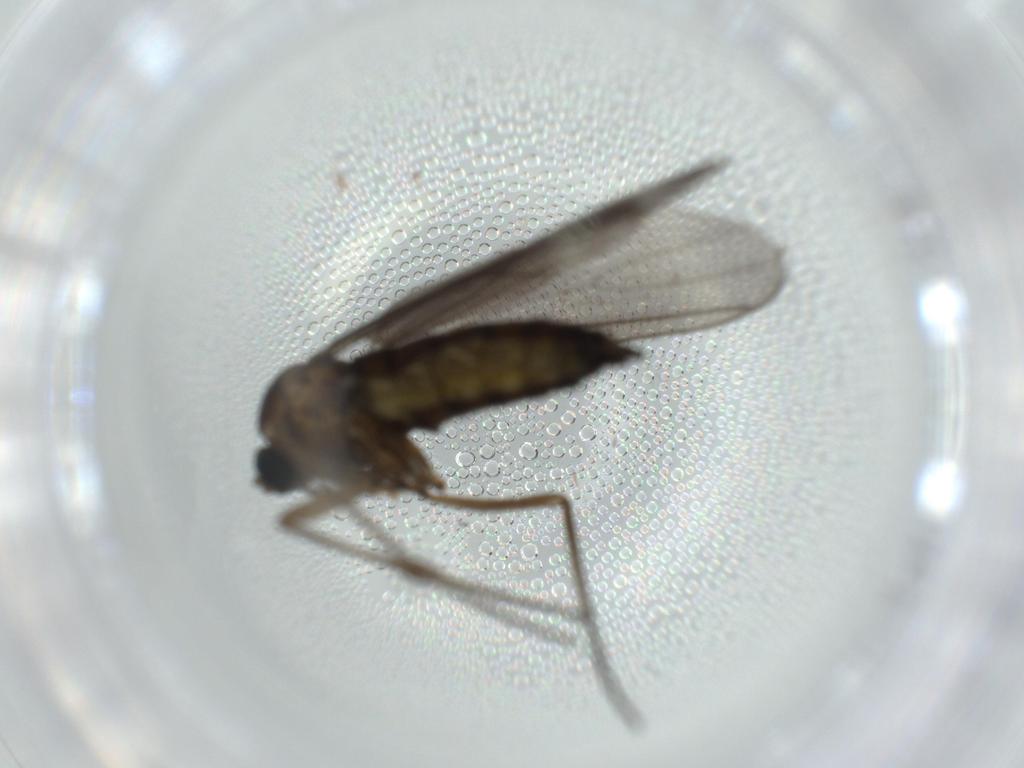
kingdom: Animalia
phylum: Arthropoda
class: Insecta
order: Diptera
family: Sciaridae
